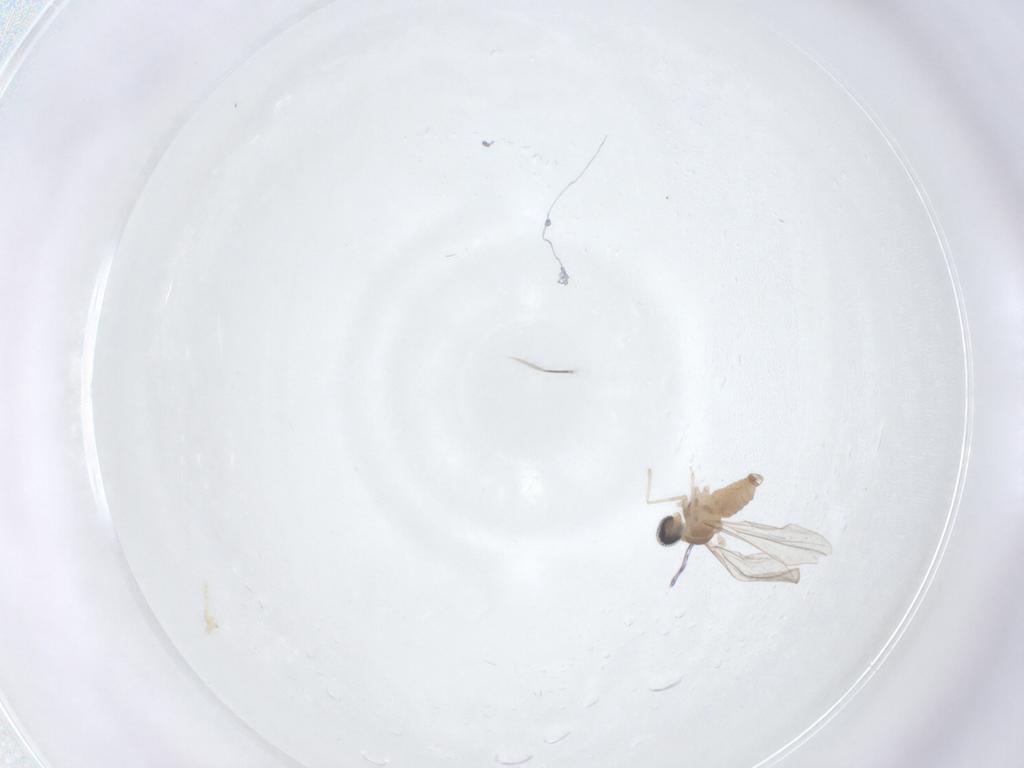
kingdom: Animalia
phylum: Arthropoda
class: Insecta
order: Diptera
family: Cecidomyiidae
